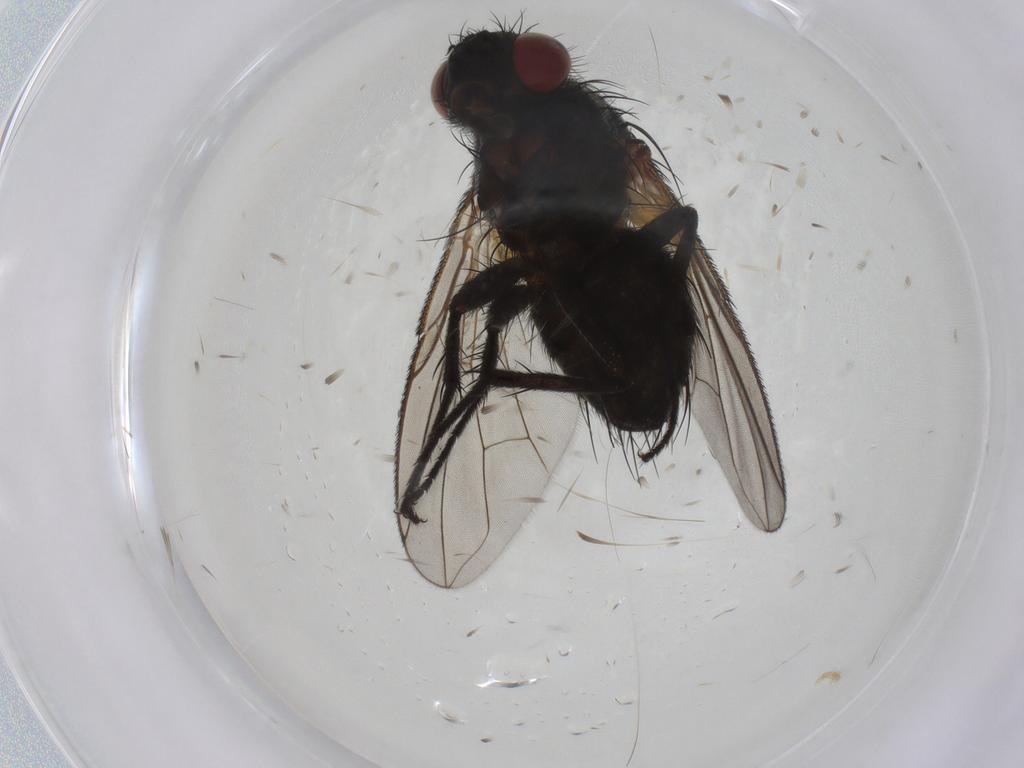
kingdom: Animalia
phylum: Arthropoda
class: Insecta
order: Diptera
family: Tachinidae
